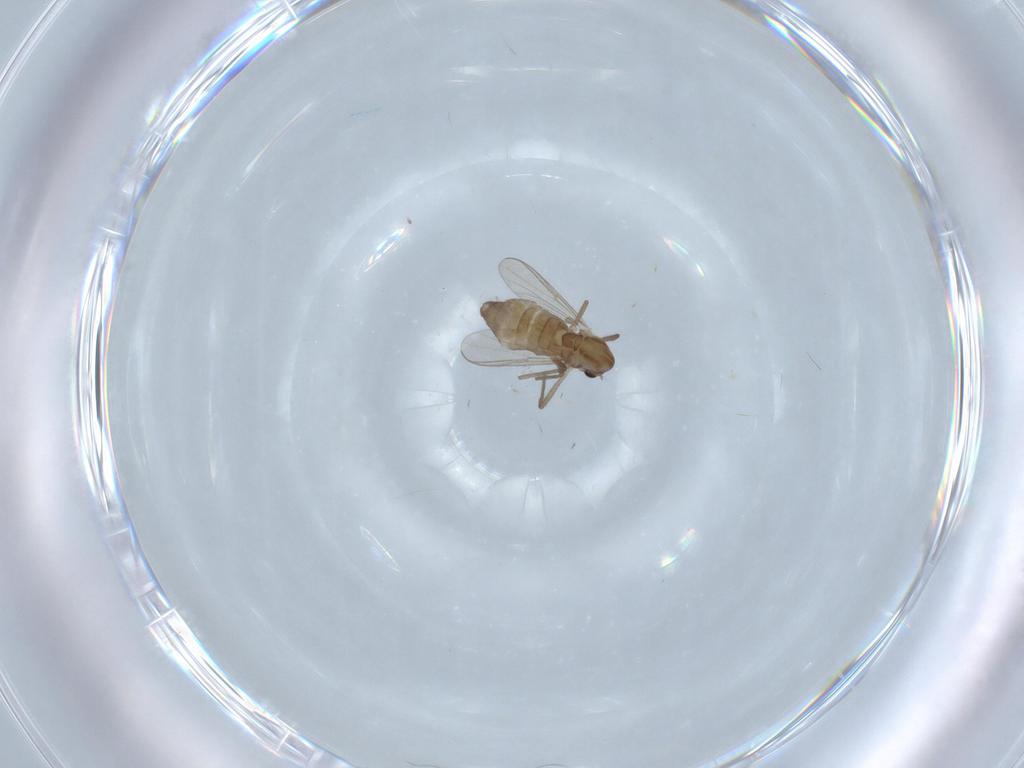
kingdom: Animalia
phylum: Arthropoda
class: Insecta
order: Diptera
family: Chironomidae
